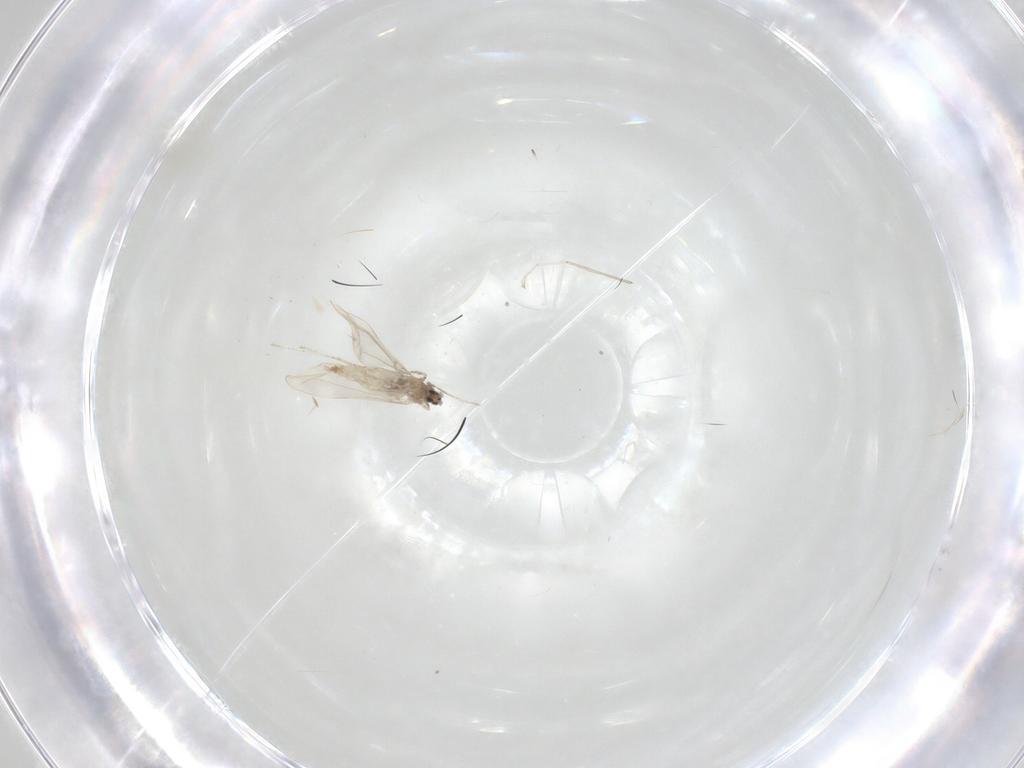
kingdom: Animalia
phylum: Arthropoda
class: Insecta
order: Diptera
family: Cecidomyiidae
